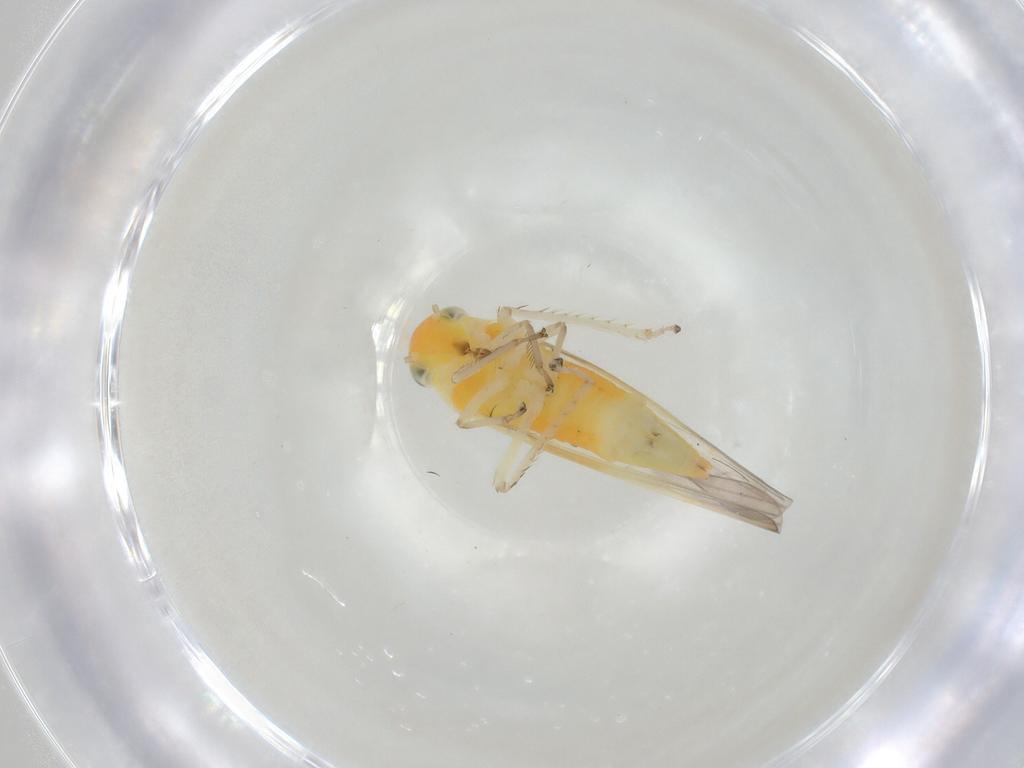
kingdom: Animalia
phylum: Arthropoda
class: Insecta
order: Hemiptera
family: Cicadellidae
